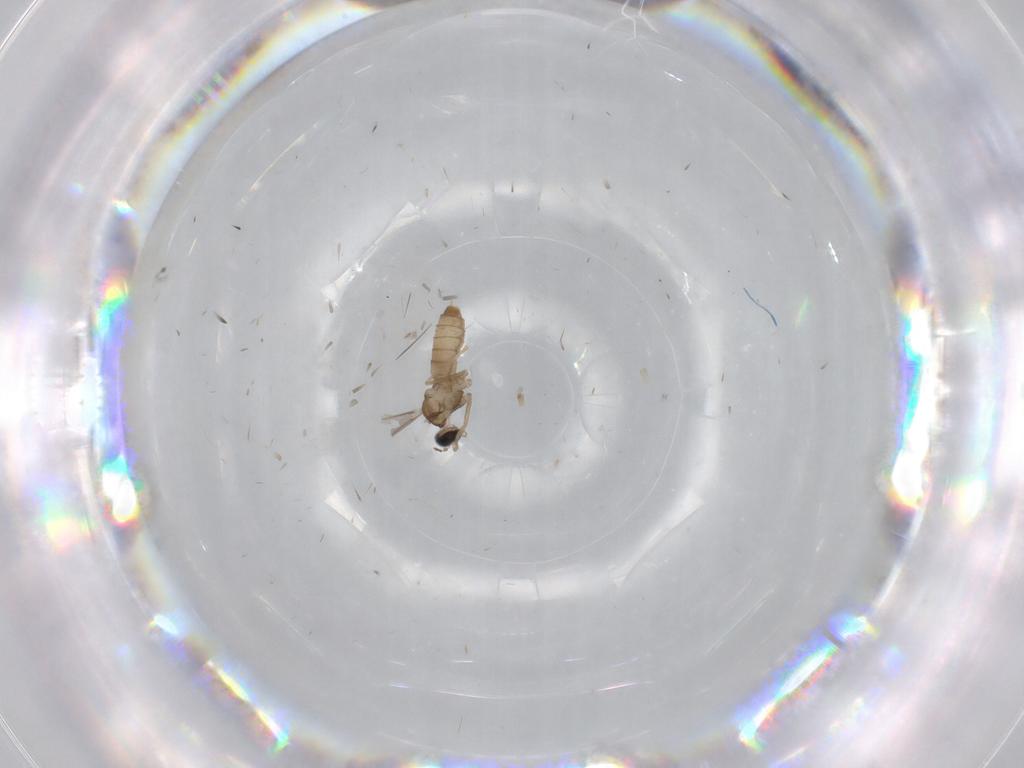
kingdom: Animalia
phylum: Arthropoda
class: Insecta
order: Diptera
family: Cecidomyiidae
